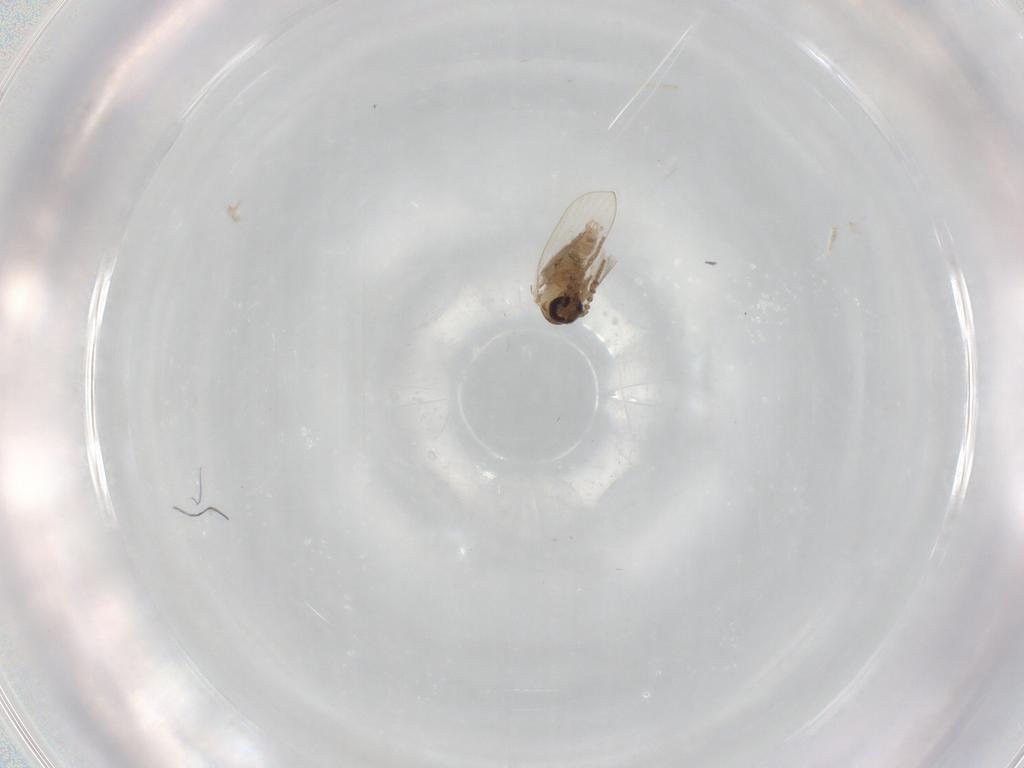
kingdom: Animalia
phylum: Arthropoda
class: Insecta
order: Diptera
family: Psychodidae
